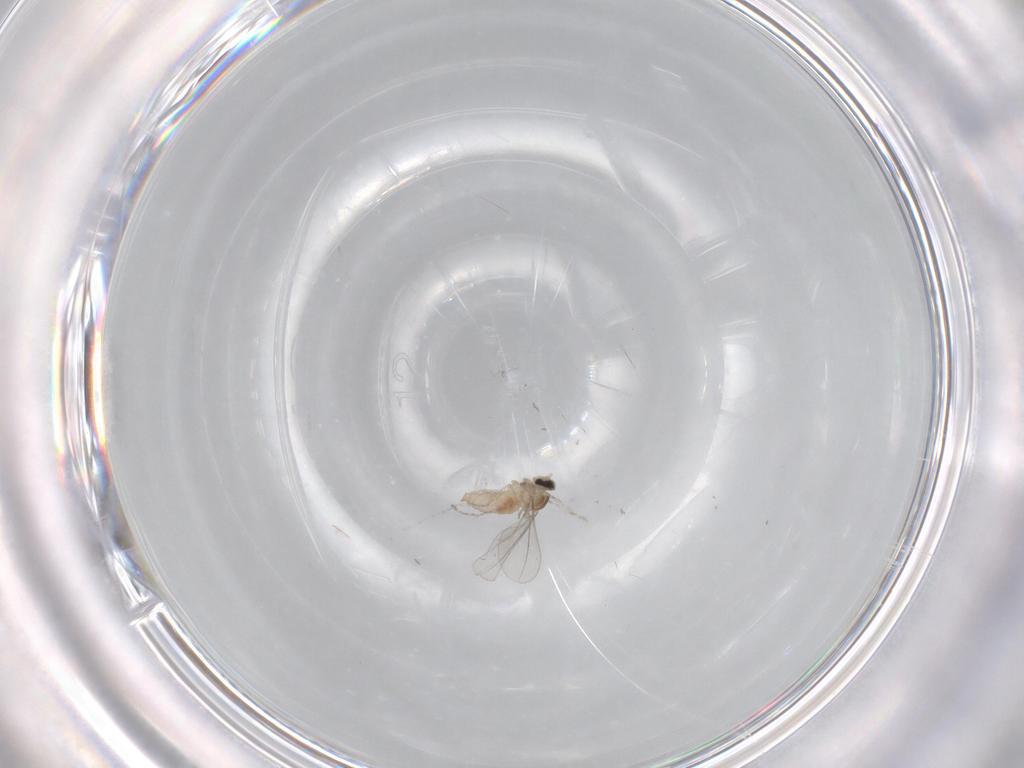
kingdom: Animalia
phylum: Arthropoda
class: Insecta
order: Diptera
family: Cecidomyiidae
